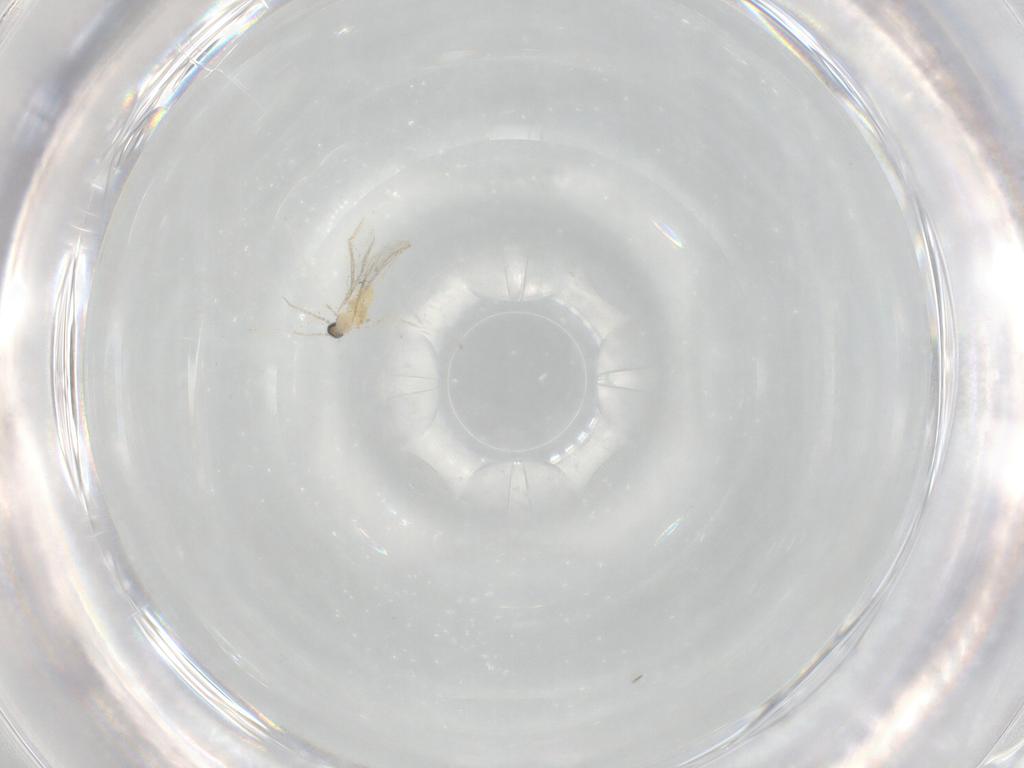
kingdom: Animalia
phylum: Arthropoda
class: Insecta
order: Diptera
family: Cecidomyiidae
